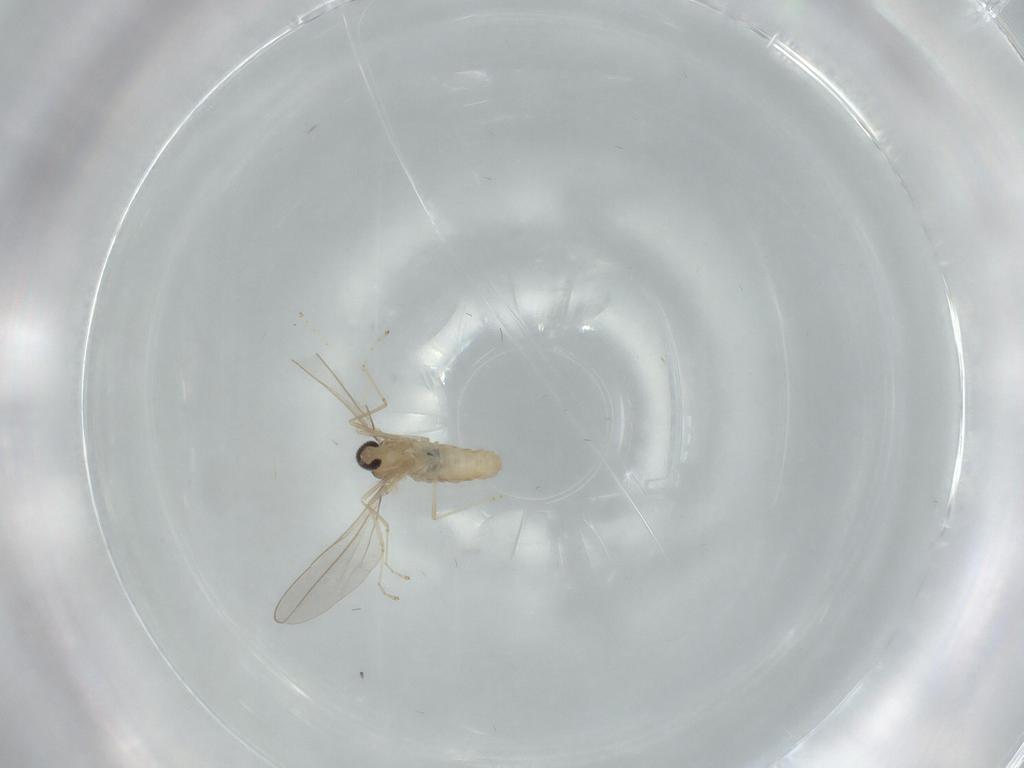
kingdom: Animalia
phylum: Arthropoda
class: Insecta
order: Diptera
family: Cecidomyiidae
